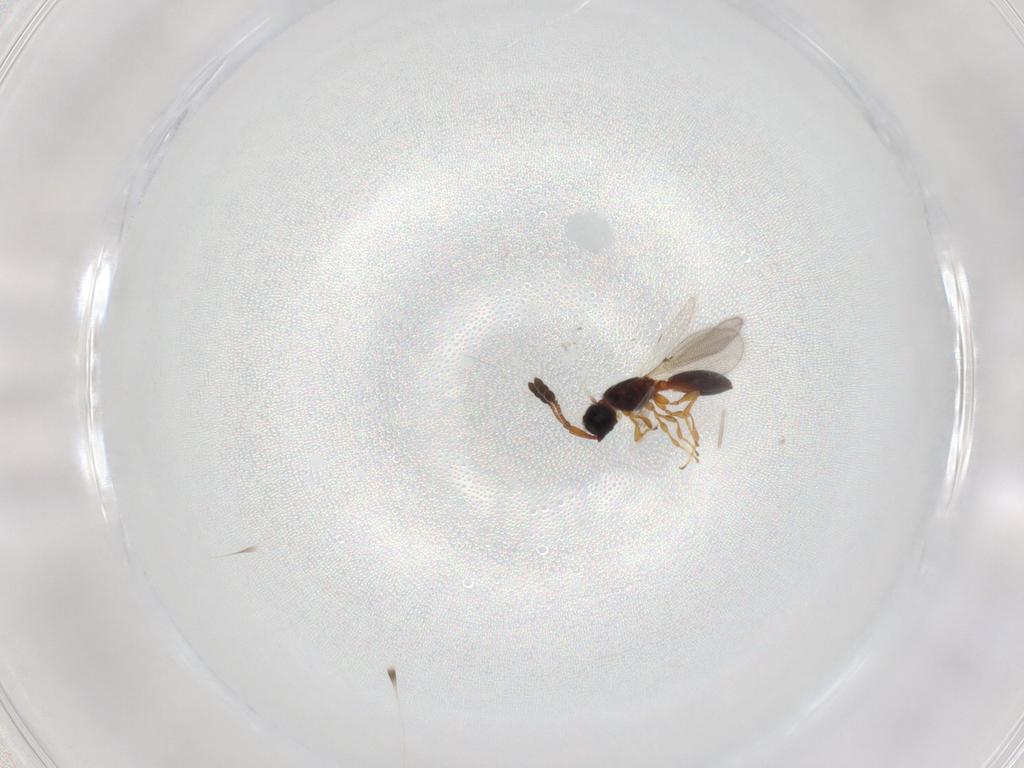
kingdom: Animalia
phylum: Arthropoda
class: Insecta
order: Hymenoptera
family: Diapriidae
